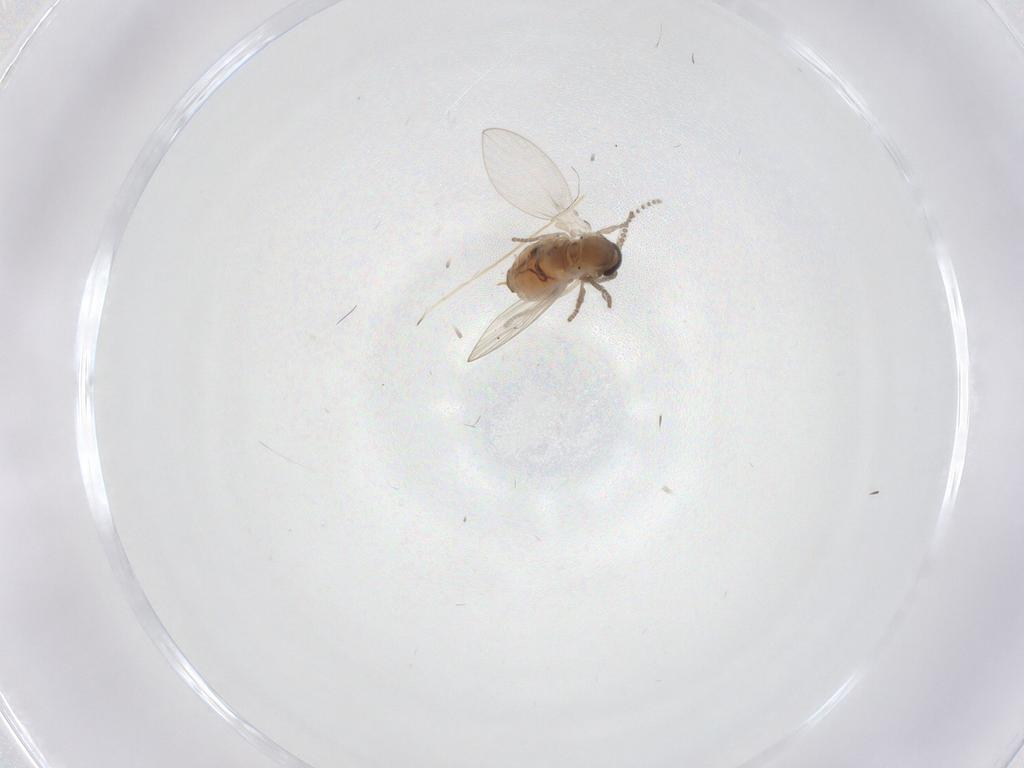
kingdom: Animalia
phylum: Arthropoda
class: Insecta
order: Diptera
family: Psychodidae
